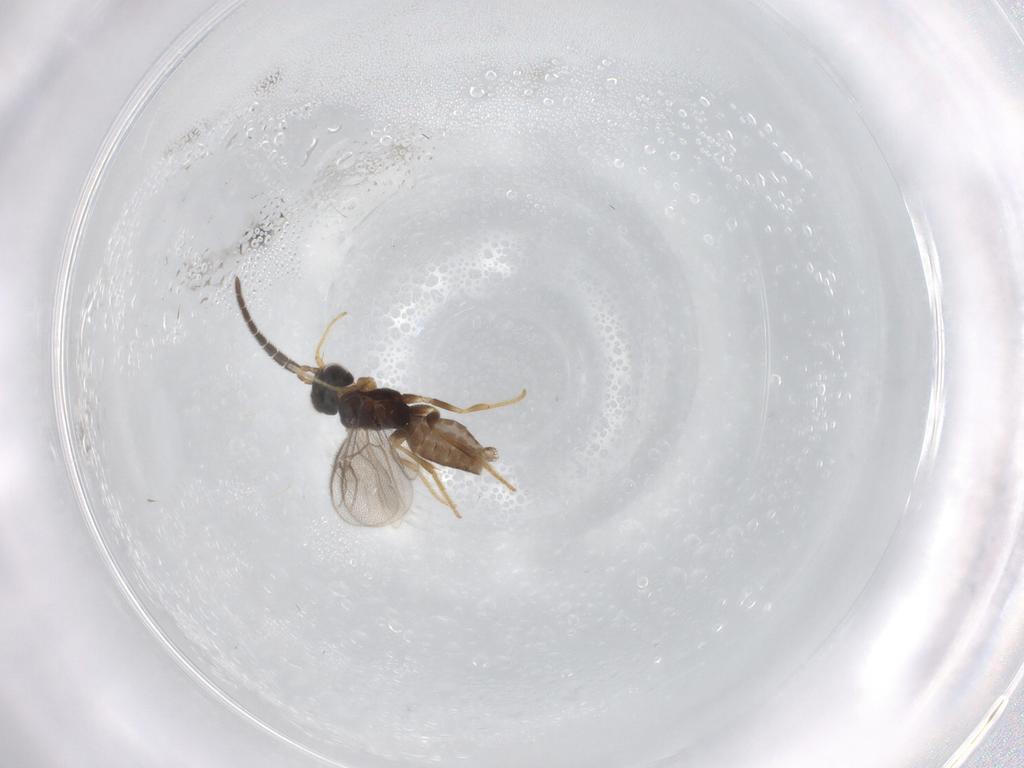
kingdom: Animalia
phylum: Arthropoda
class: Insecta
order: Hymenoptera
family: Dryinidae
